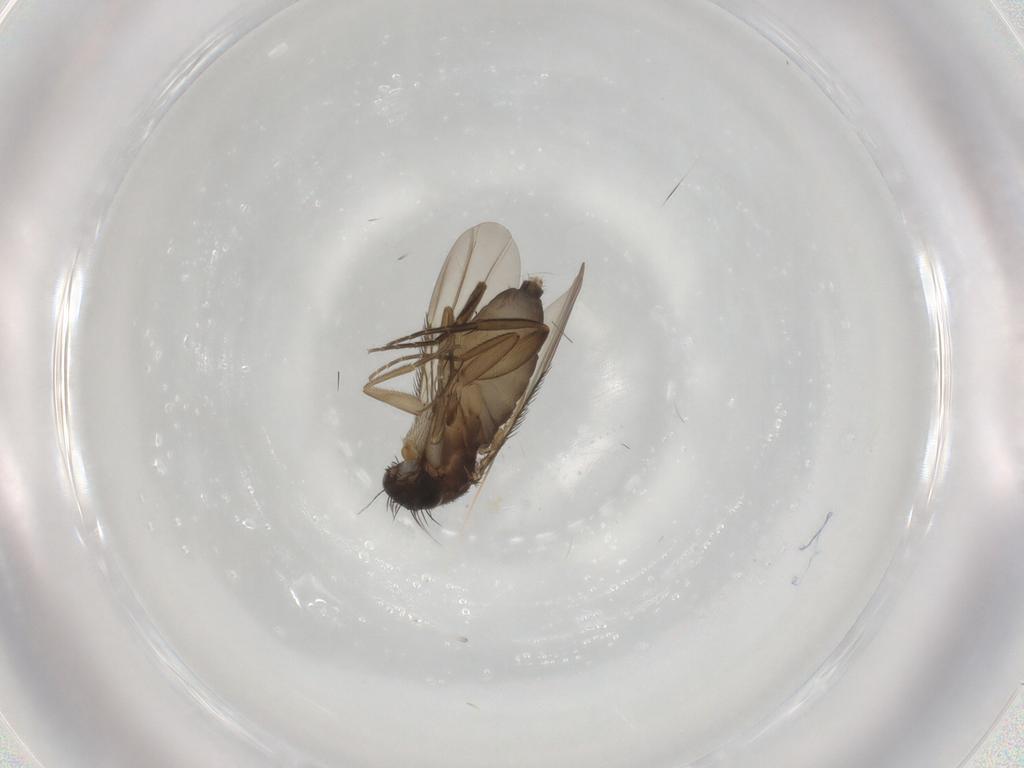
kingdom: Animalia
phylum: Arthropoda
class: Insecta
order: Diptera
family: Phoridae
